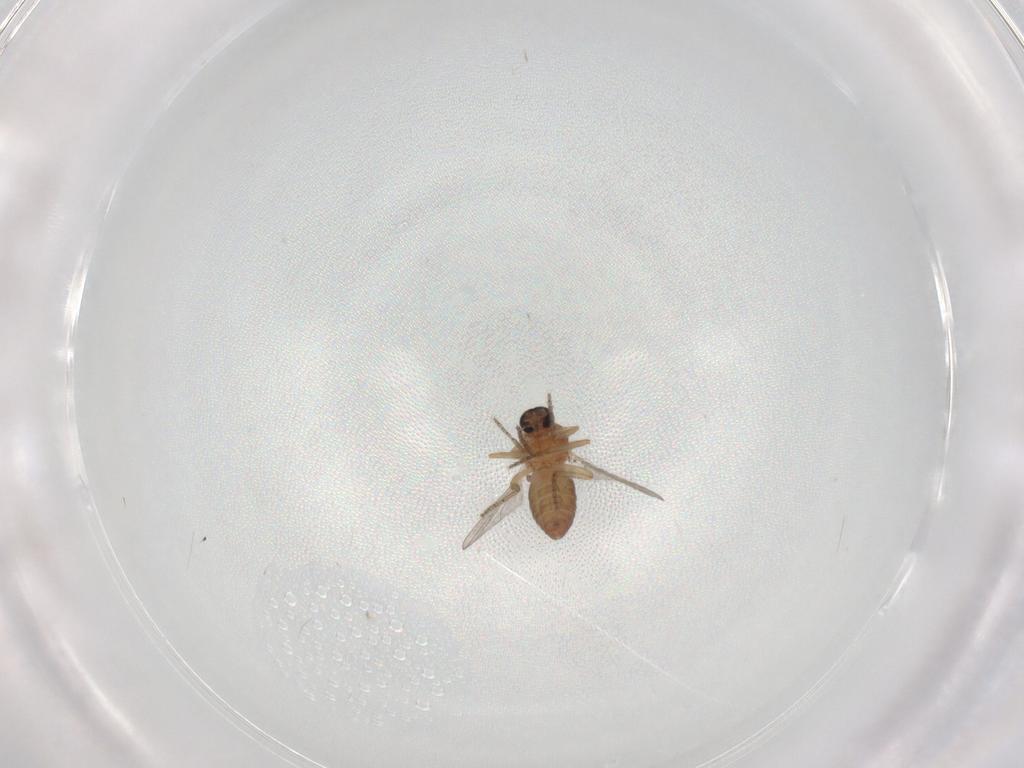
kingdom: Animalia
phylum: Arthropoda
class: Insecta
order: Diptera
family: Ceratopogonidae
